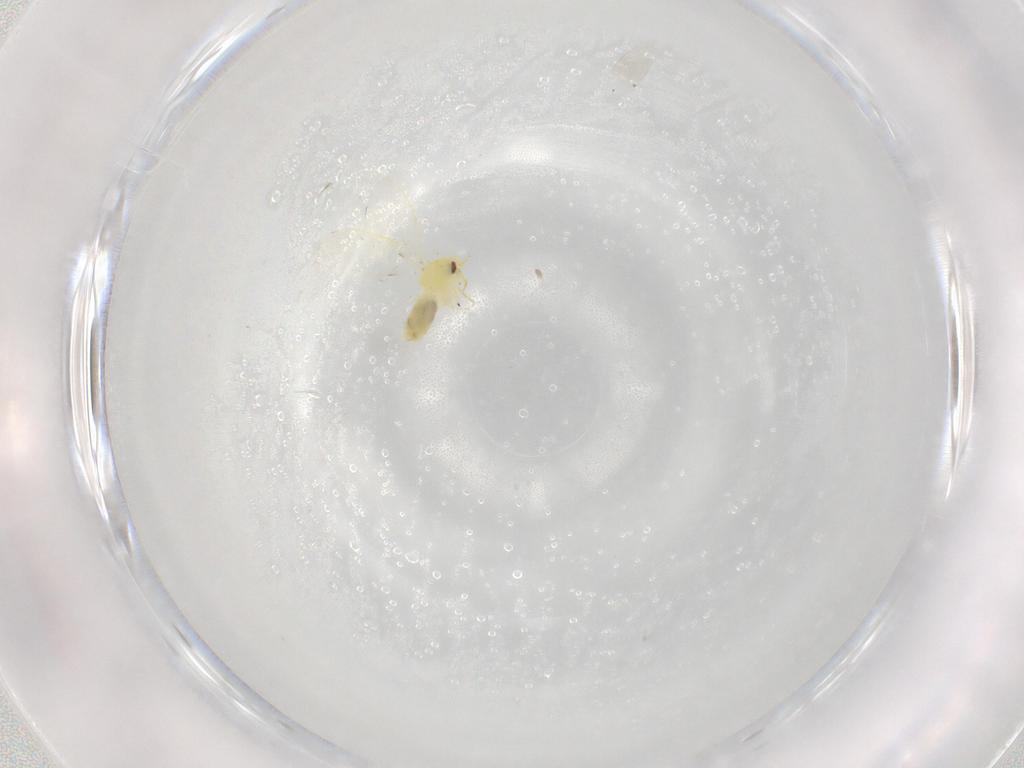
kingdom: Animalia
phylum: Arthropoda
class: Insecta
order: Hemiptera
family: Aleyrodidae
